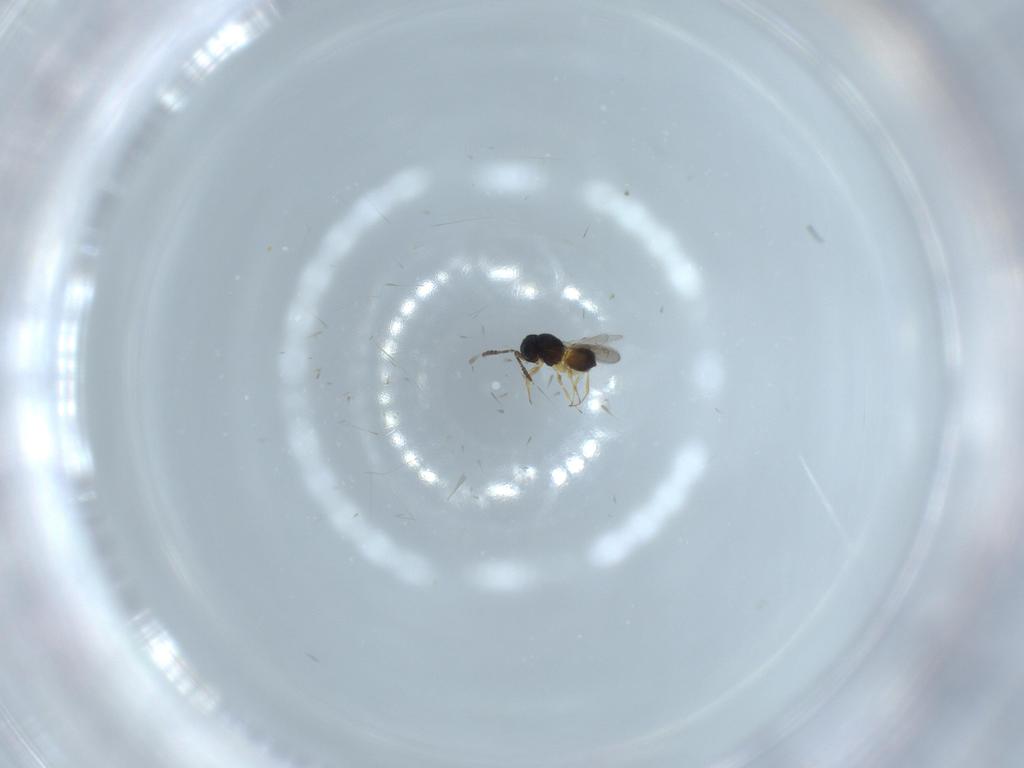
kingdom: Animalia
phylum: Arthropoda
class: Insecta
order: Hymenoptera
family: Scelionidae
